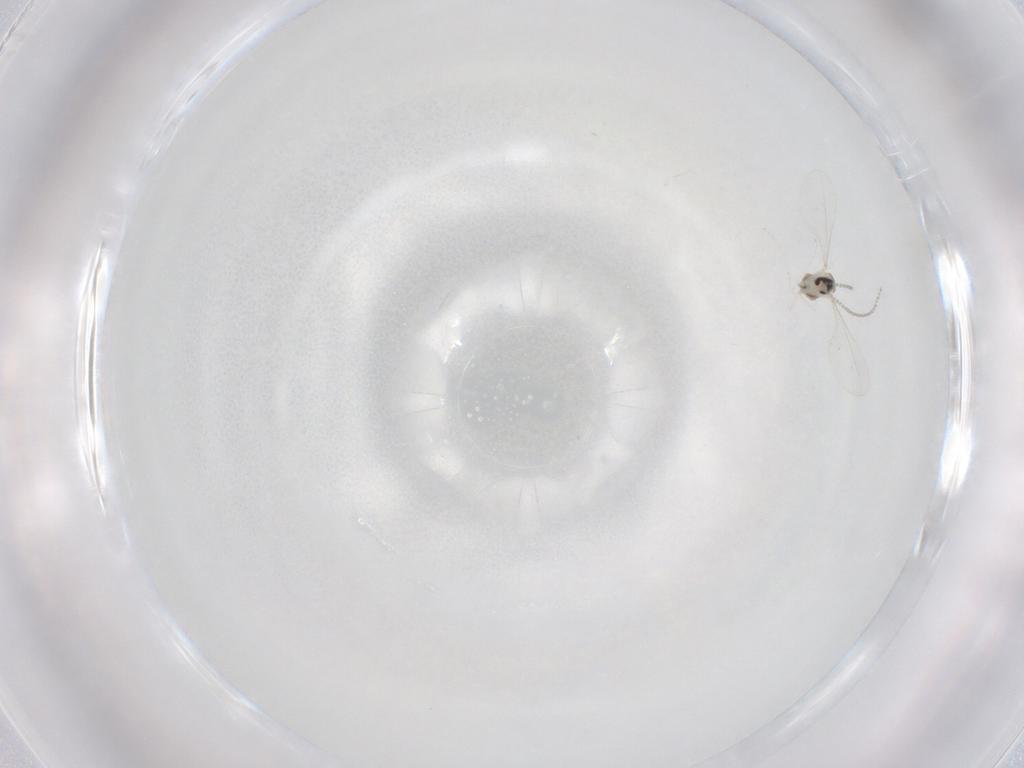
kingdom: Animalia
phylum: Arthropoda
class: Insecta
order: Diptera
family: Cecidomyiidae
